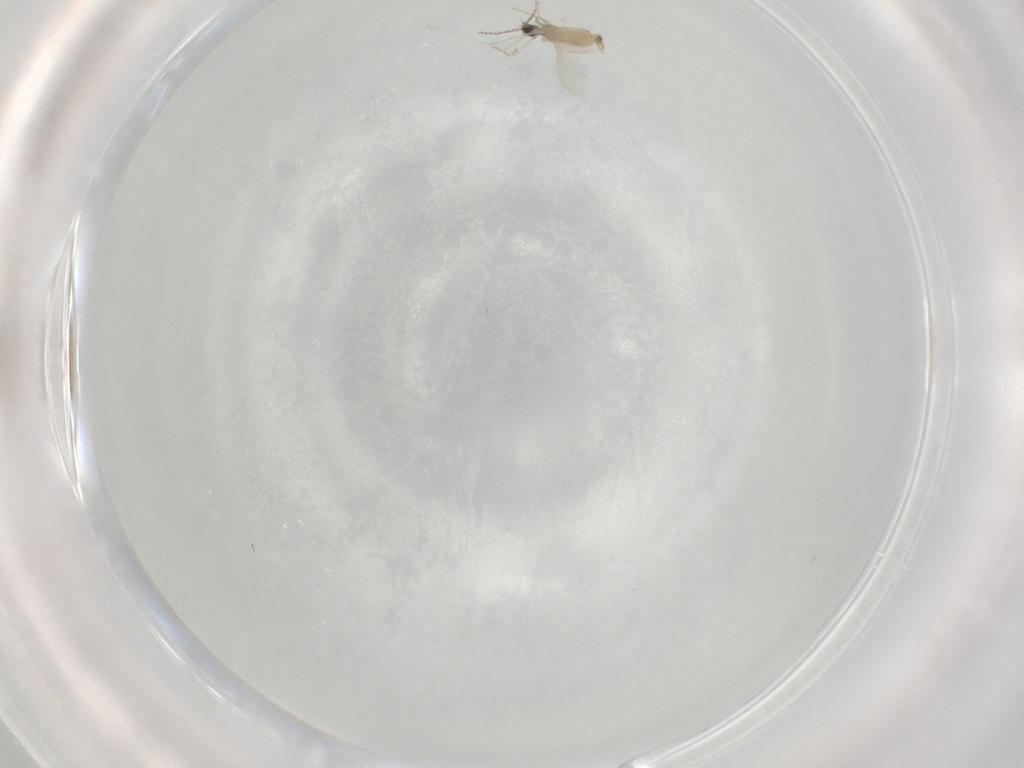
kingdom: Animalia
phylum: Arthropoda
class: Insecta
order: Diptera
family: Cecidomyiidae
